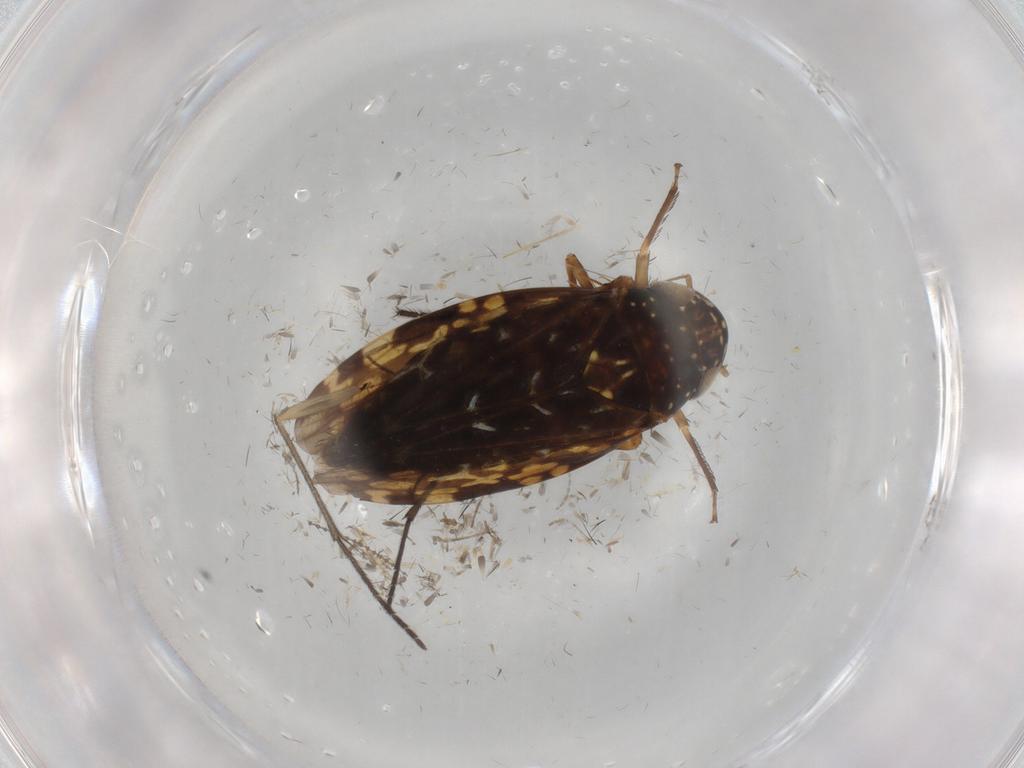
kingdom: Animalia
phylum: Arthropoda
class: Insecta
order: Hemiptera
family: Cicadellidae
